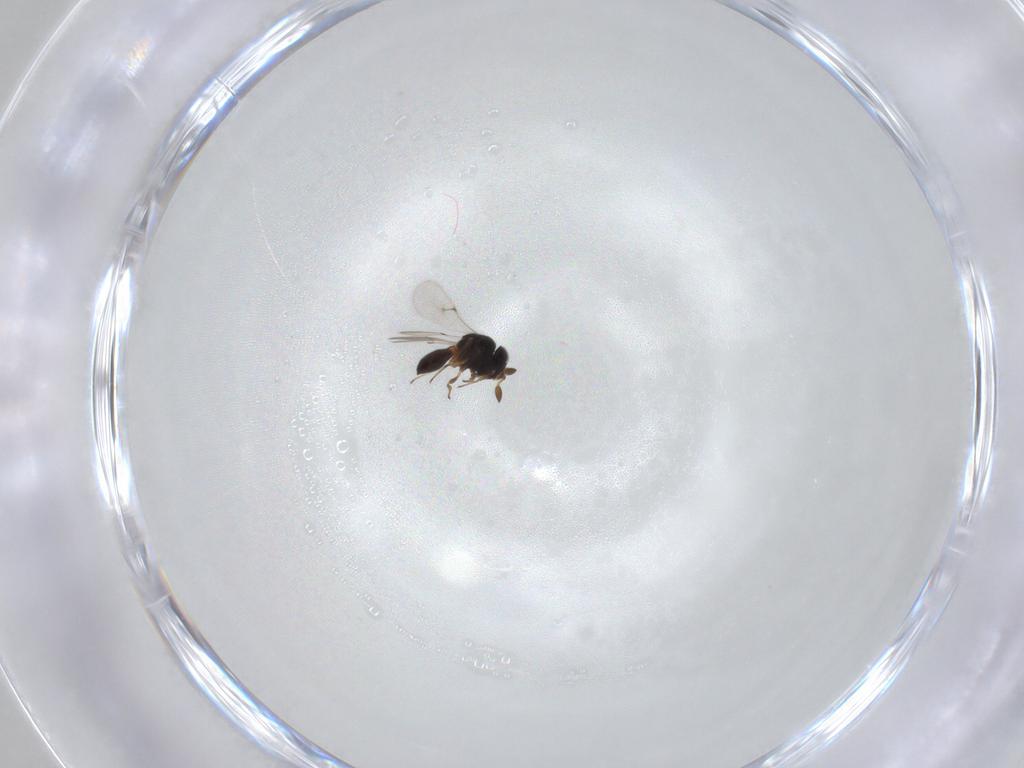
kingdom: Animalia
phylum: Arthropoda
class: Insecta
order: Hymenoptera
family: Scelionidae
